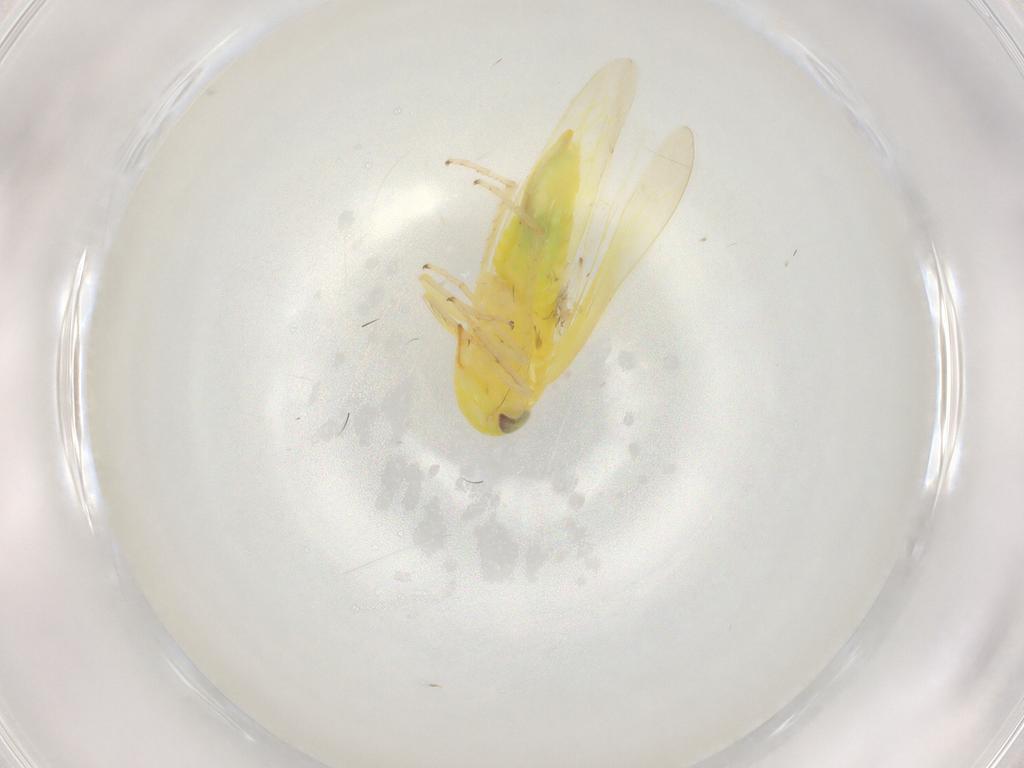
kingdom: Animalia
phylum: Arthropoda
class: Insecta
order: Hemiptera
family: Cicadellidae
